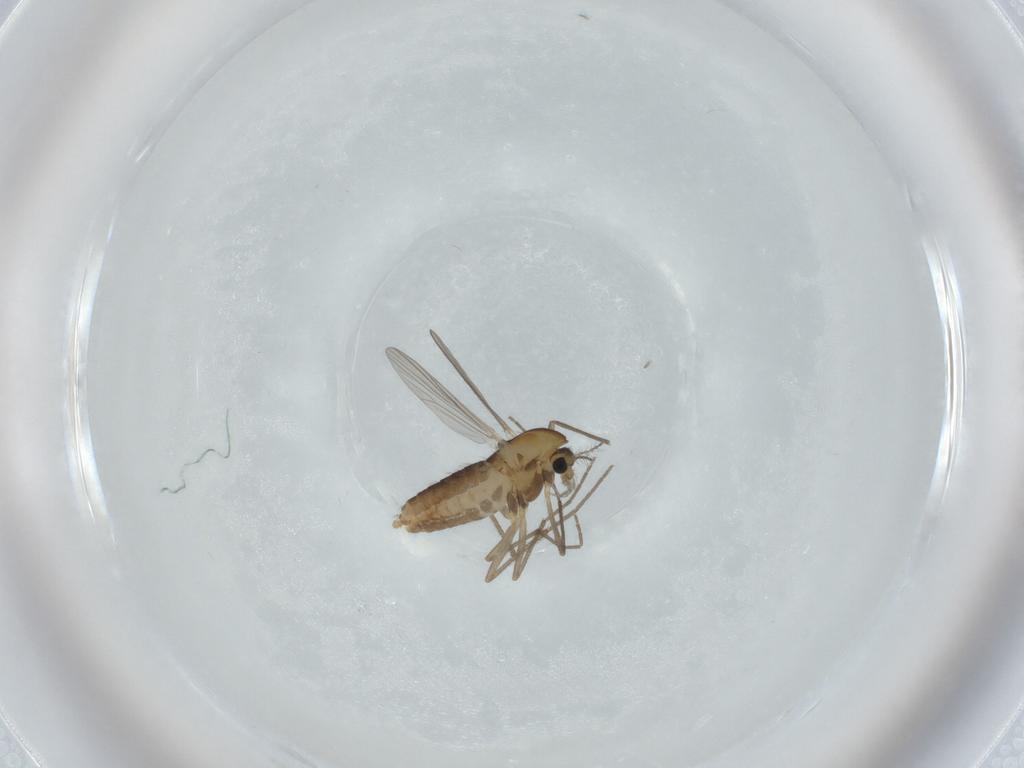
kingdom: Animalia
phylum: Arthropoda
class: Insecta
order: Diptera
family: Chironomidae
